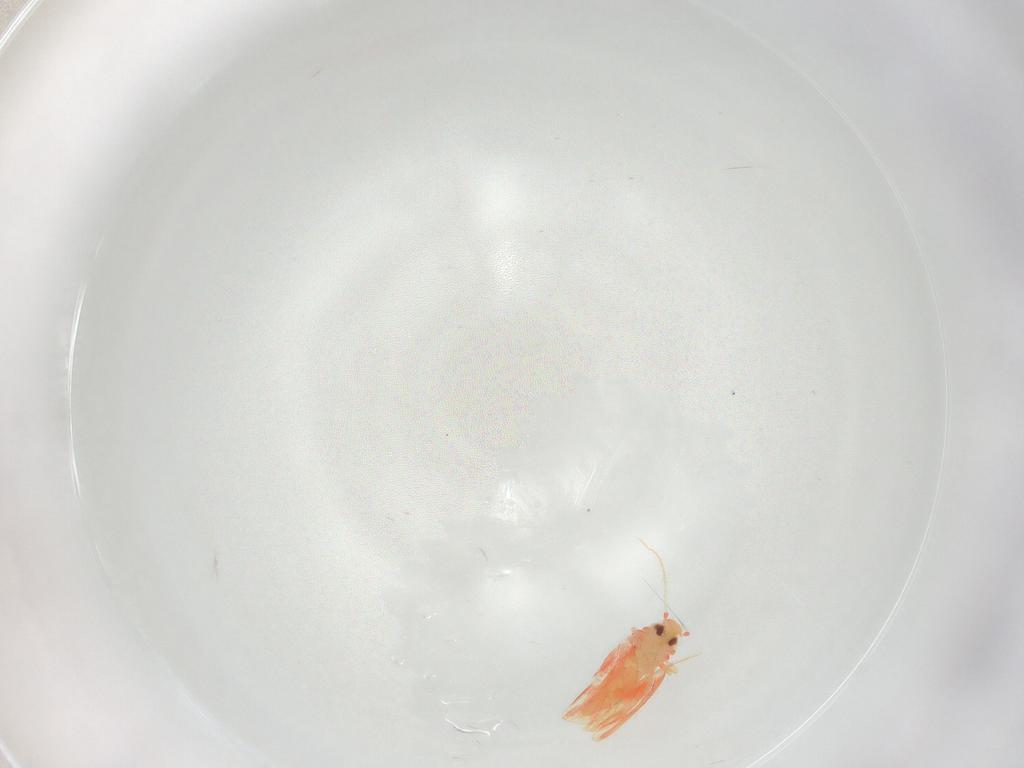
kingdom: Animalia
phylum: Arthropoda
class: Insecta
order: Hemiptera
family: Aleyrodidae
